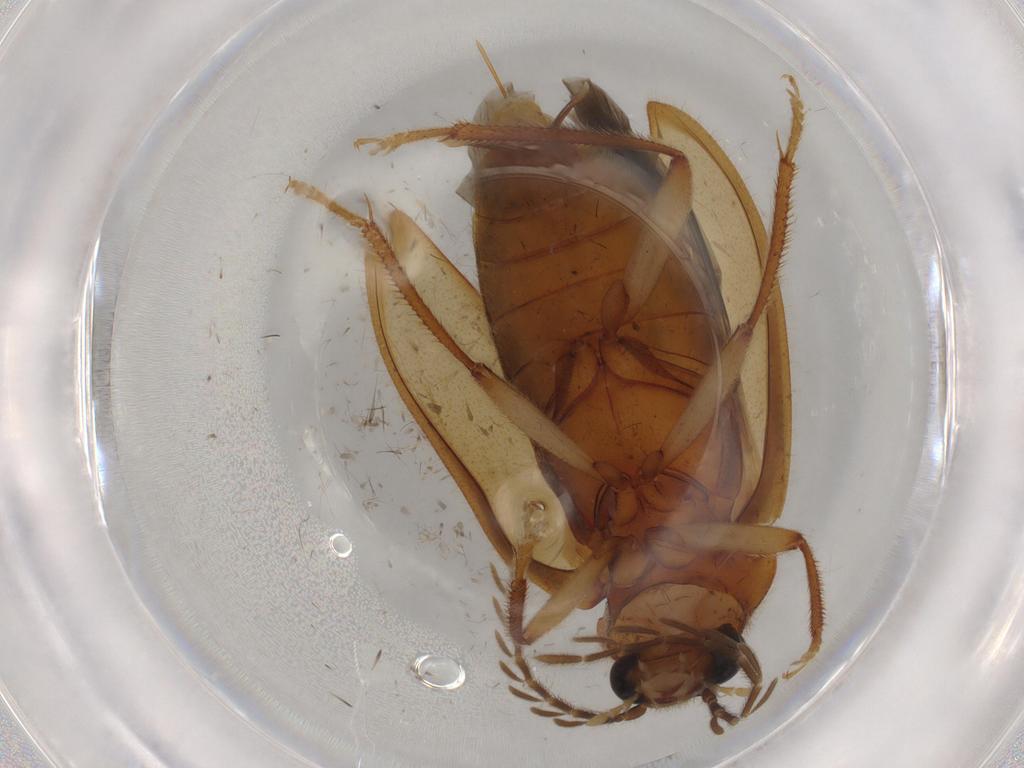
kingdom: Animalia
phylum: Arthropoda
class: Insecta
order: Coleoptera
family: Ptilodactylidae
